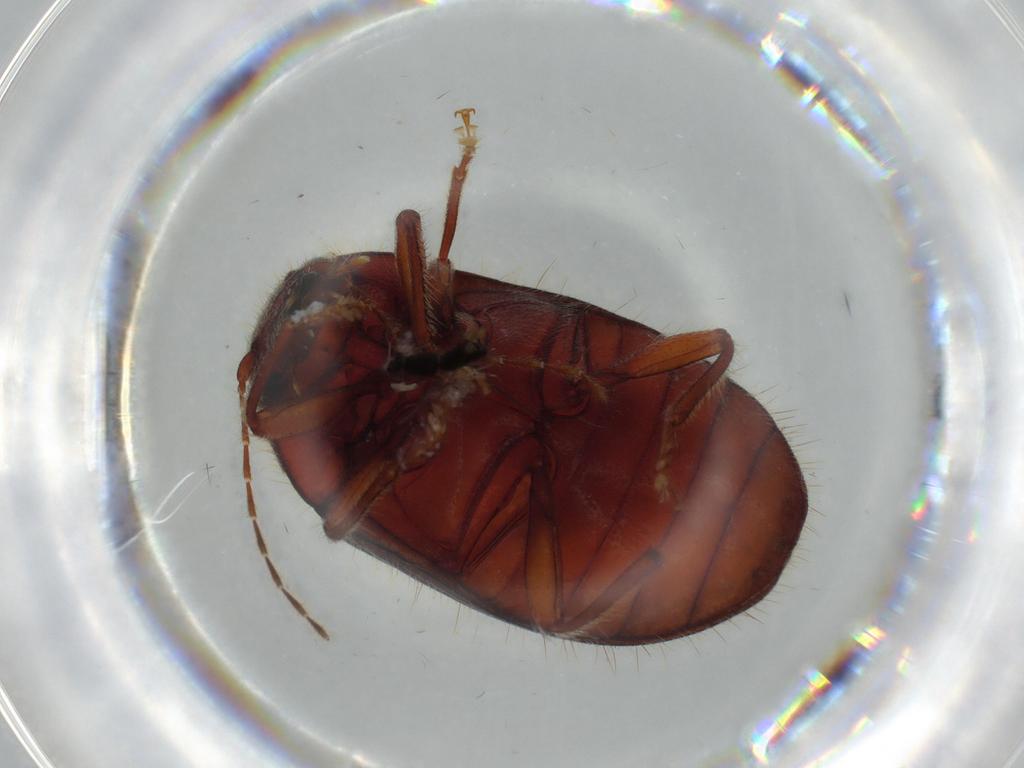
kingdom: Animalia
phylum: Arthropoda
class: Insecta
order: Coleoptera
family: Artematopodidae
